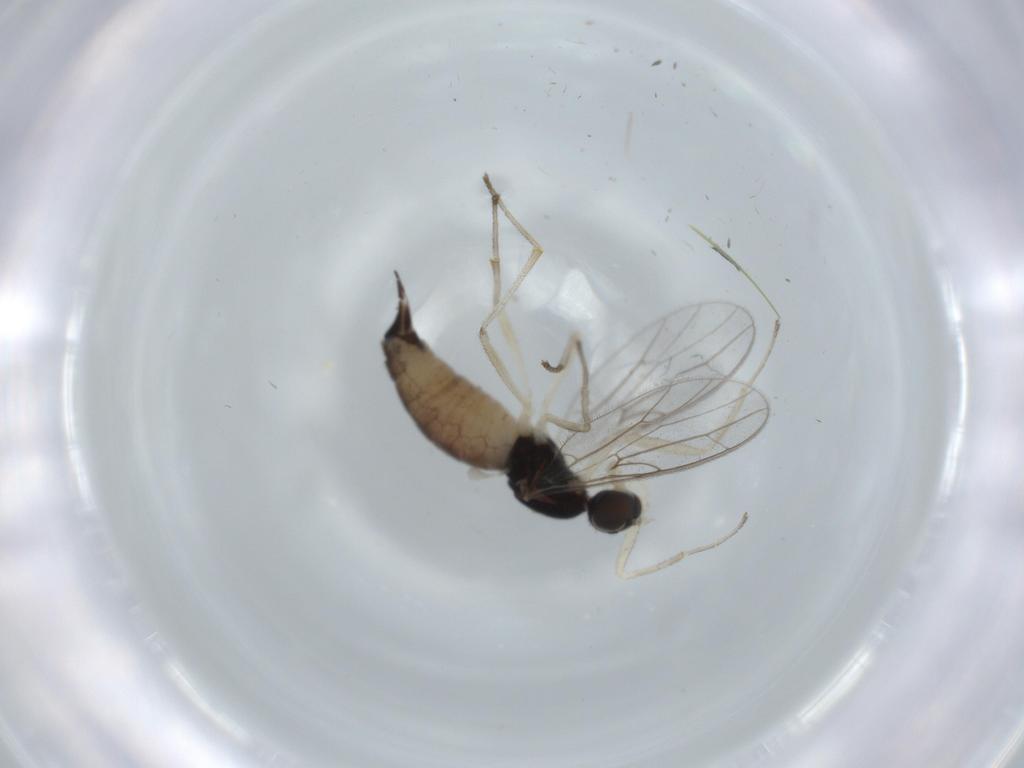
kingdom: Animalia
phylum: Arthropoda
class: Insecta
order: Diptera
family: Empididae
